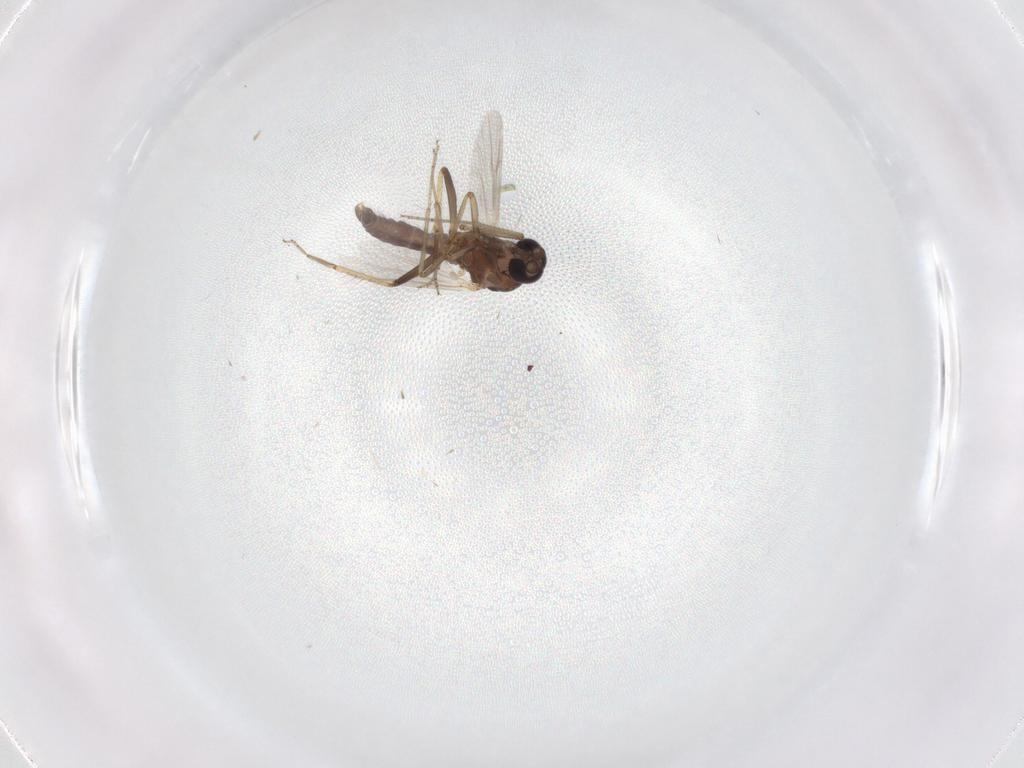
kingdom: Animalia
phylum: Arthropoda
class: Insecta
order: Diptera
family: Ceratopogonidae
